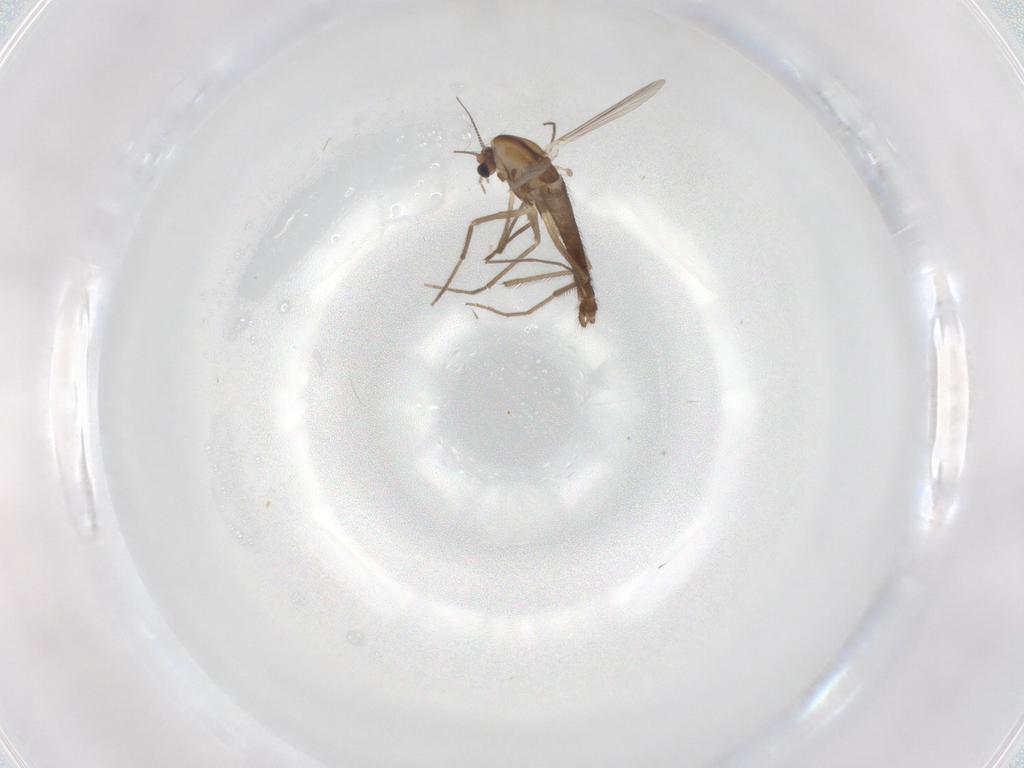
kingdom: Animalia
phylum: Arthropoda
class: Insecta
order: Diptera
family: Chironomidae
